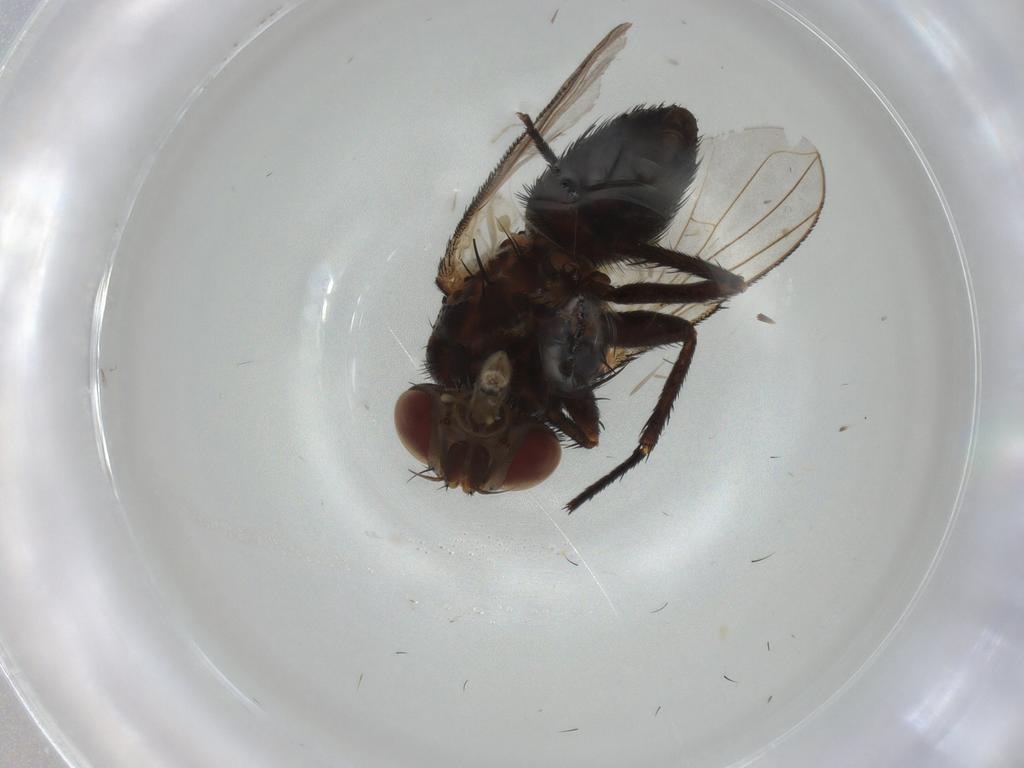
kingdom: Animalia
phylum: Arthropoda
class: Insecta
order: Diptera
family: Tachinidae
